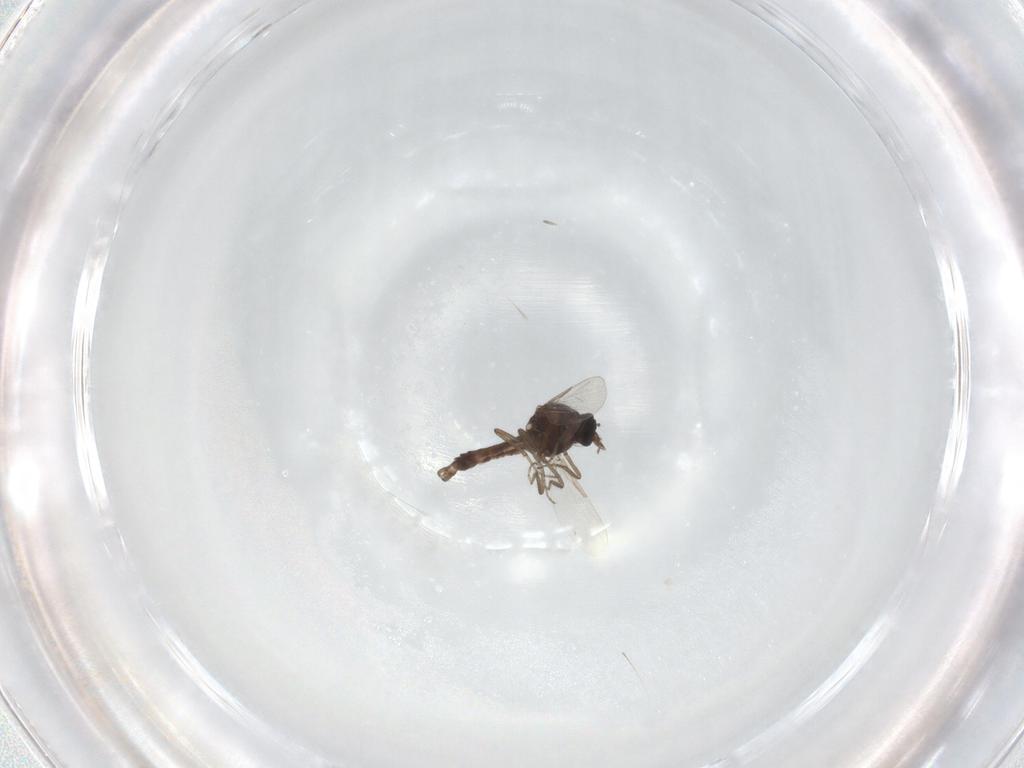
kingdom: Animalia
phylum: Arthropoda
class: Insecta
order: Diptera
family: Ceratopogonidae
